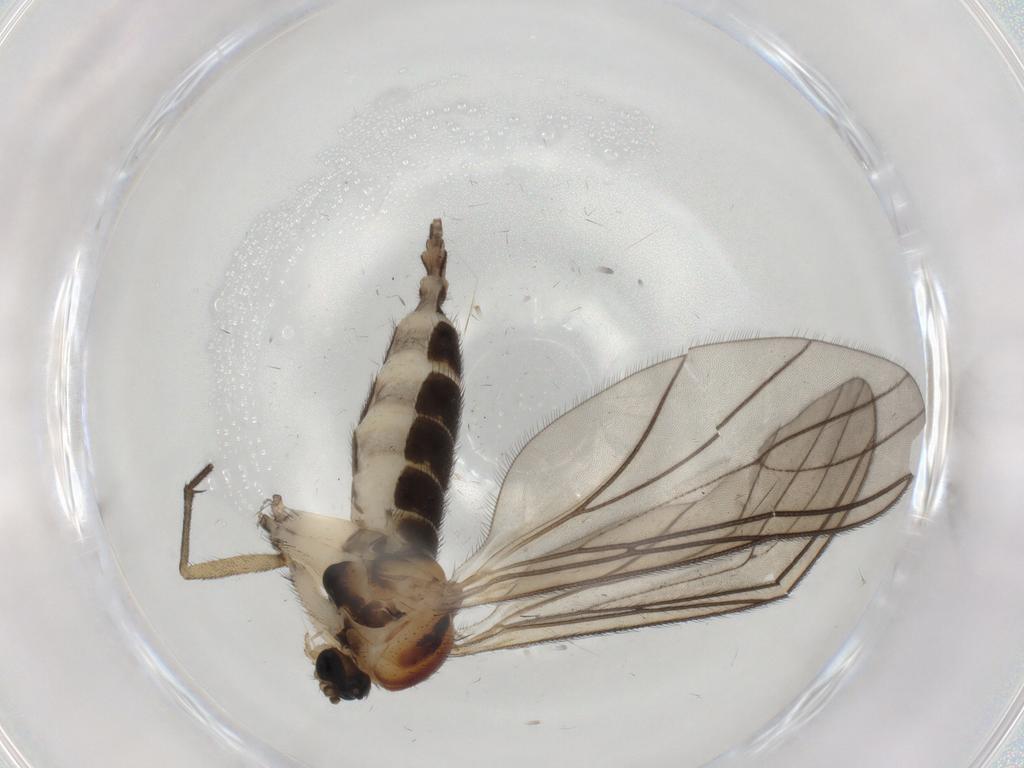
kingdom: Animalia
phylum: Arthropoda
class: Insecta
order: Diptera
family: Sciaridae
